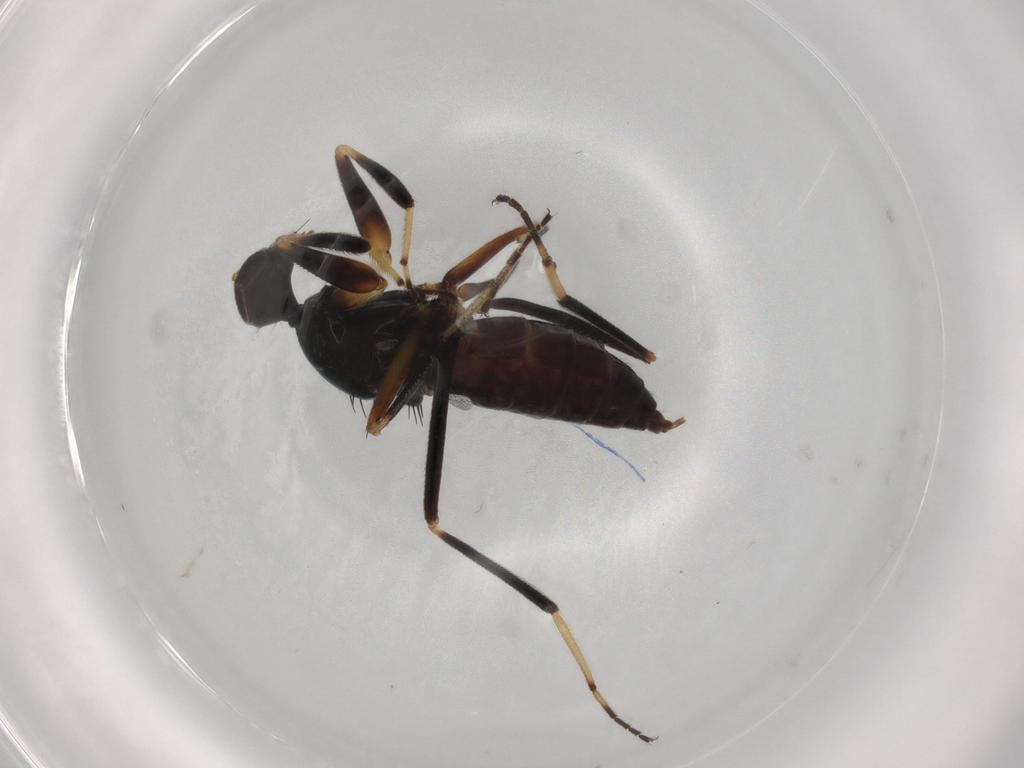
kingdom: Animalia
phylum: Arthropoda
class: Insecta
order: Diptera
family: Hybotidae
